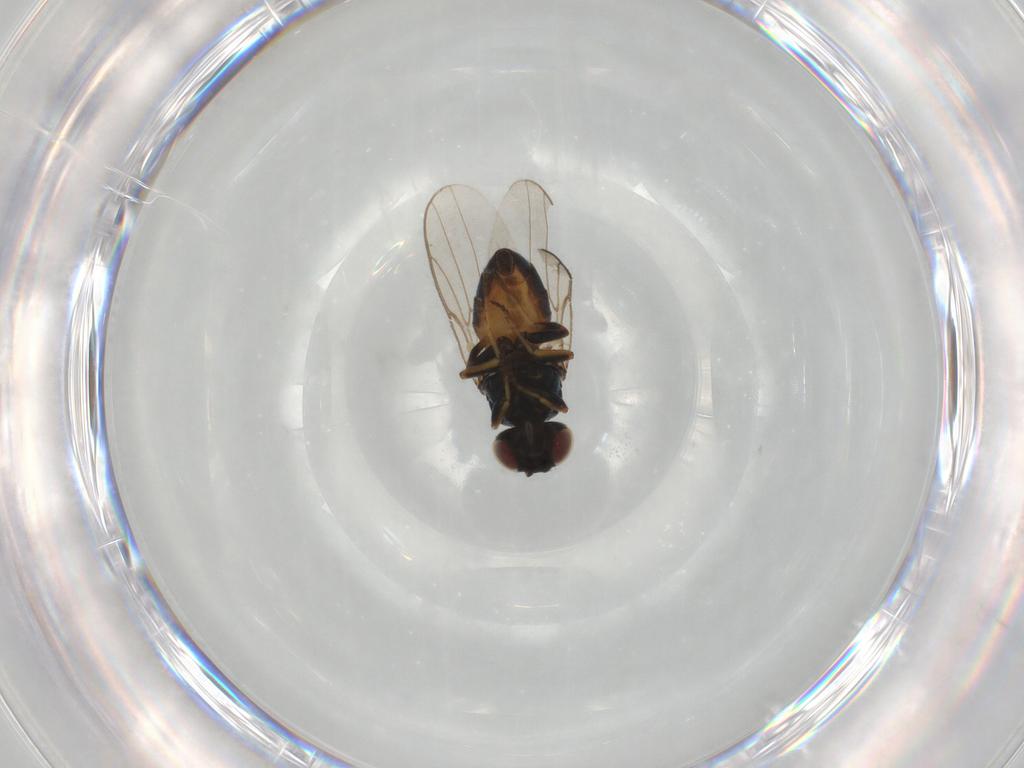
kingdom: Animalia
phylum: Arthropoda
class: Insecta
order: Diptera
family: Chloropidae
